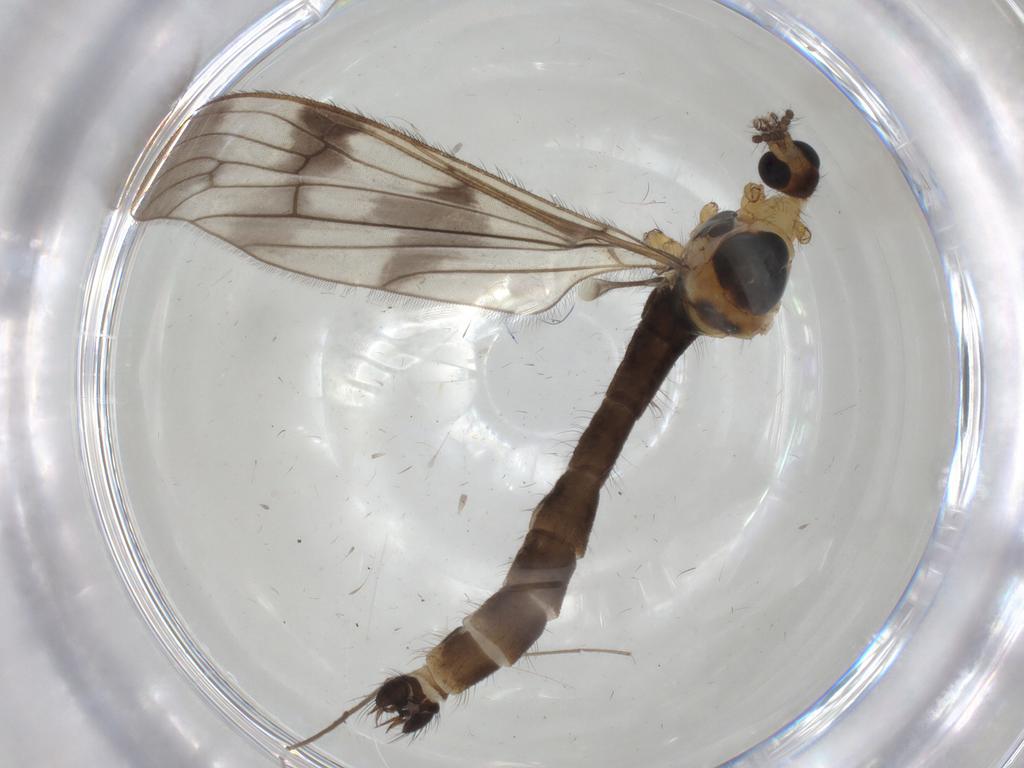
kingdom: Animalia
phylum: Arthropoda
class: Insecta
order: Diptera
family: Limoniidae
